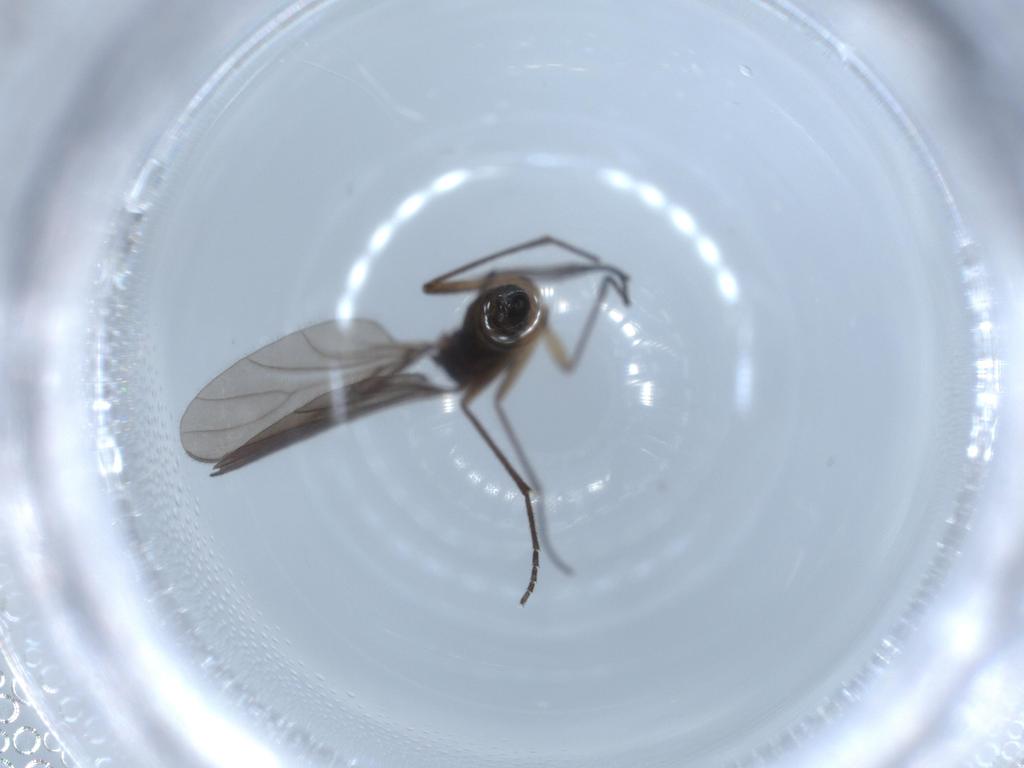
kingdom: Animalia
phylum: Arthropoda
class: Insecta
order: Diptera
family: Sciaridae
